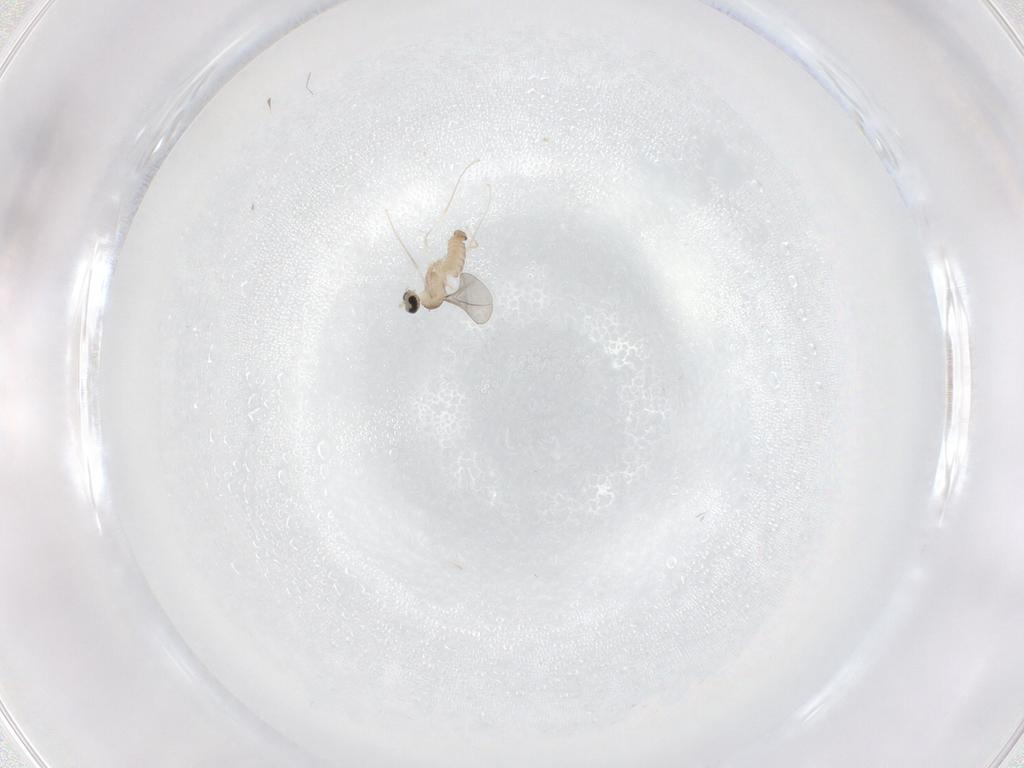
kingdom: Animalia
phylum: Arthropoda
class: Insecta
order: Diptera
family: Cecidomyiidae
